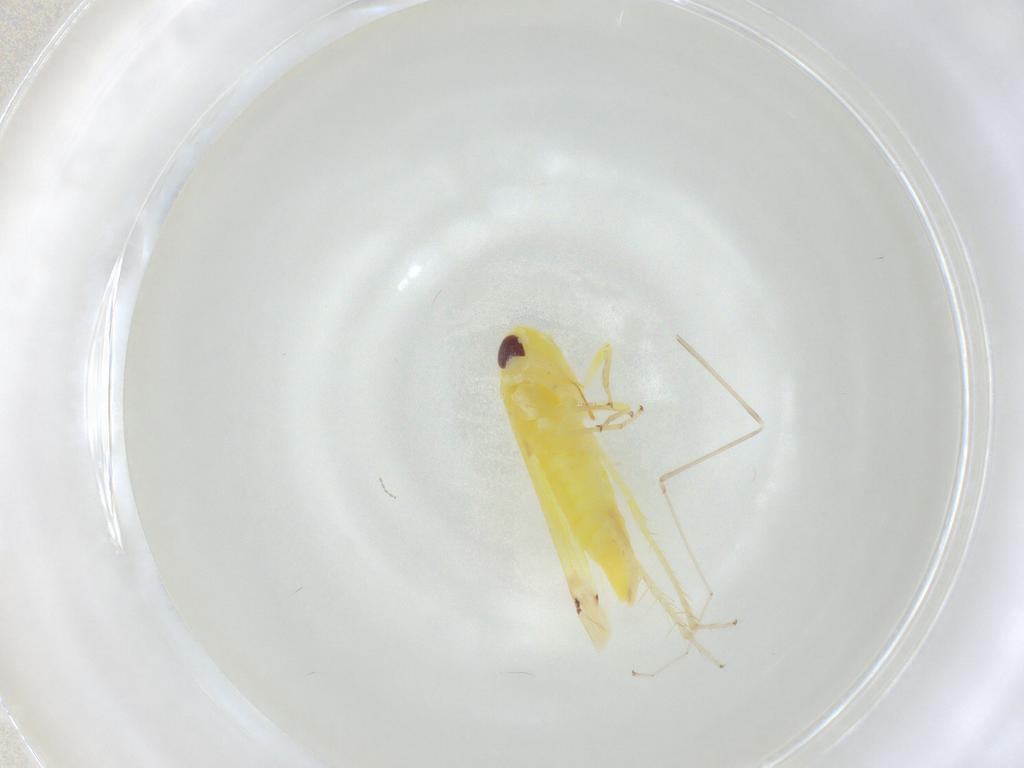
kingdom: Animalia
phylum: Arthropoda
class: Insecta
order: Hemiptera
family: Cicadellidae
